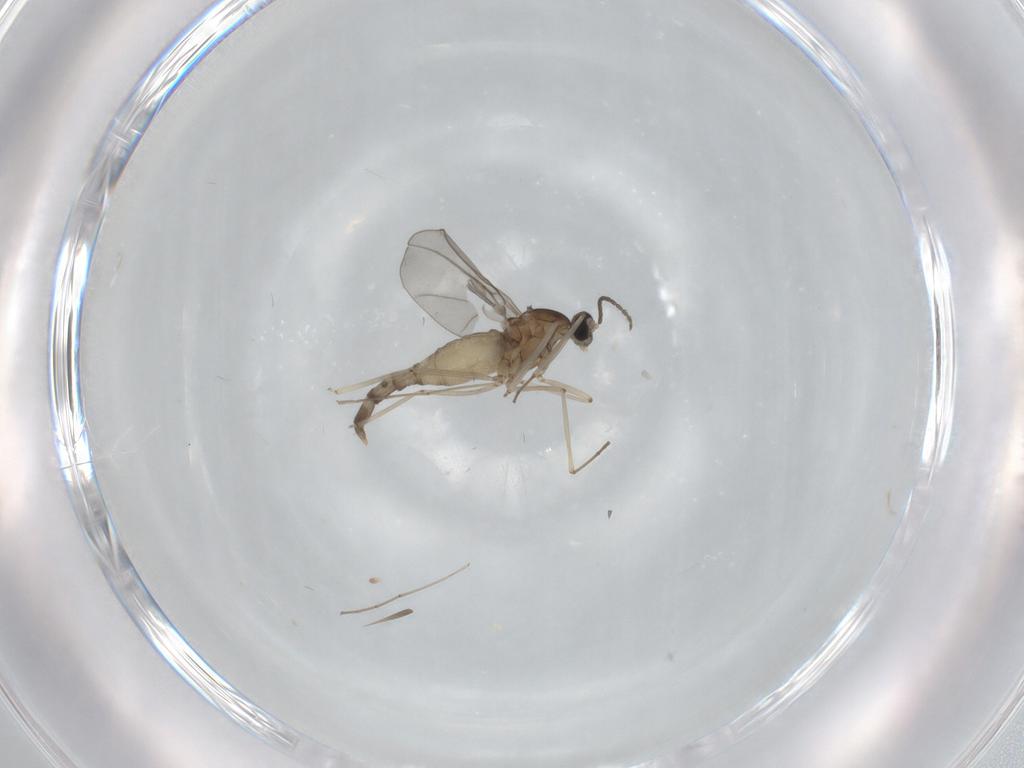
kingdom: Animalia
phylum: Arthropoda
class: Insecta
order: Diptera
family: Cecidomyiidae
